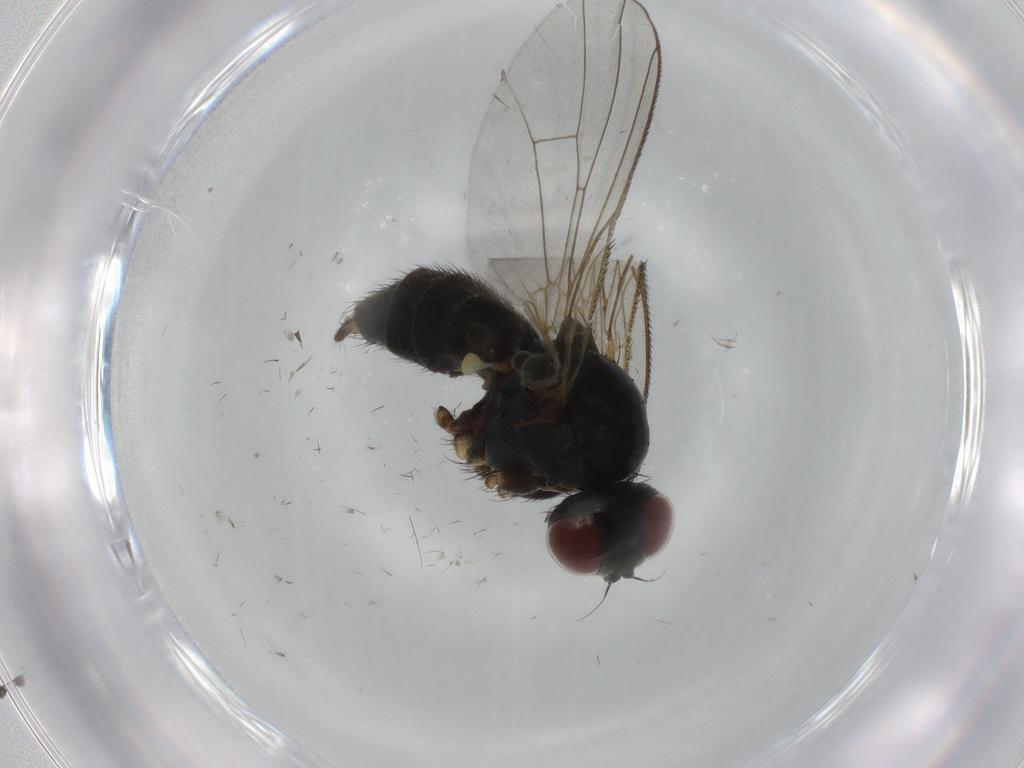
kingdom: Animalia
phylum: Arthropoda
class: Insecta
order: Diptera
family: Muscidae
